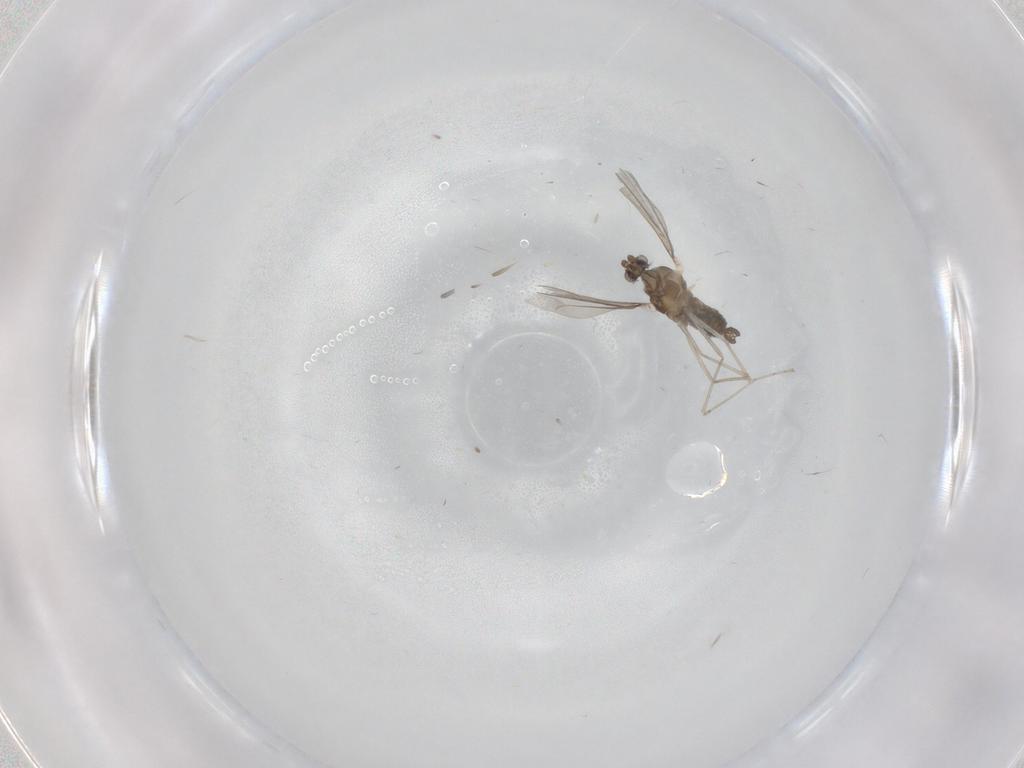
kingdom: Animalia
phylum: Arthropoda
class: Insecta
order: Diptera
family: Cecidomyiidae
